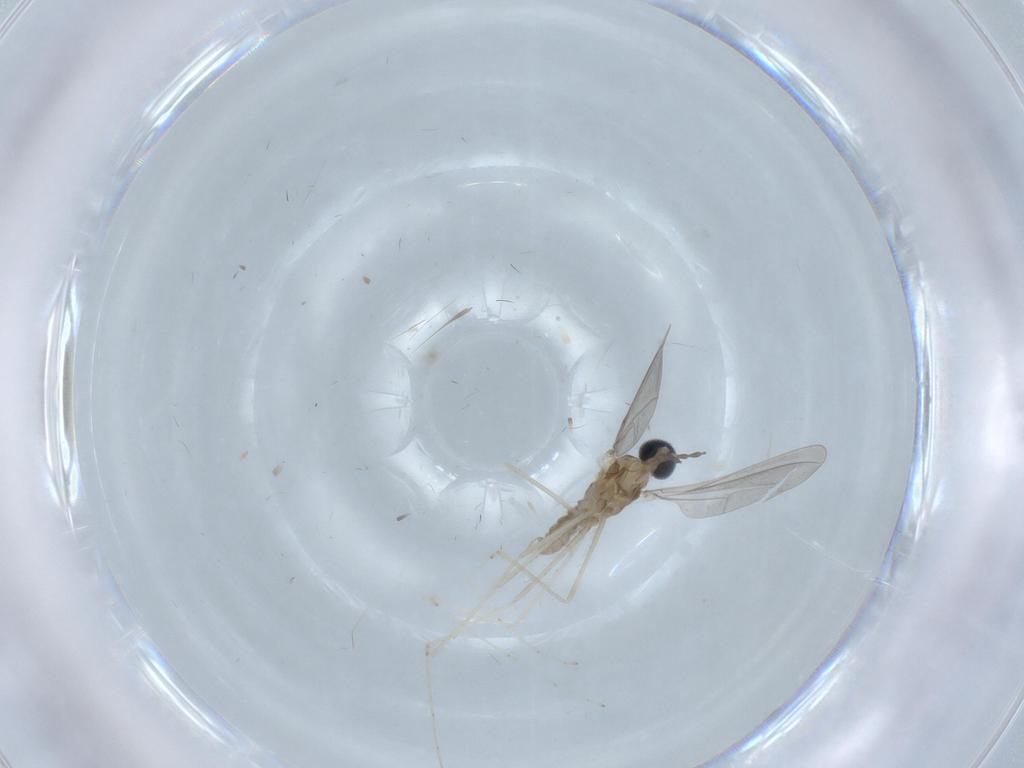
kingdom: Animalia
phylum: Arthropoda
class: Insecta
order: Diptera
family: Cecidomyiidae
